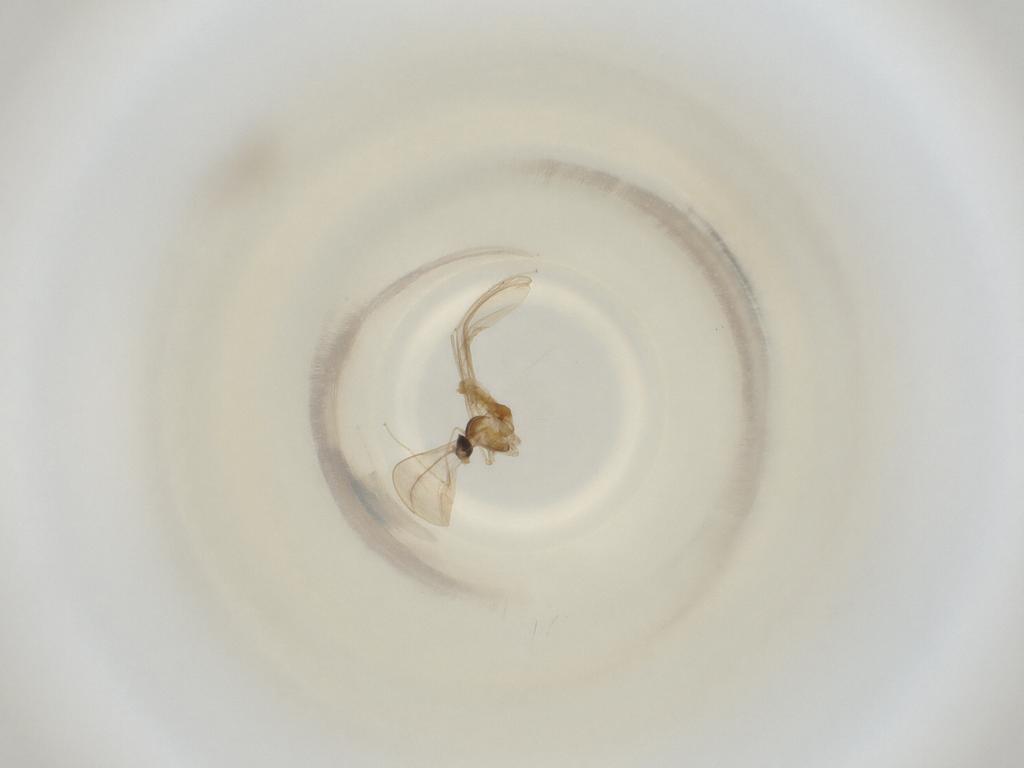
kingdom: Animalia
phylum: Arthropoda
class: Insecta
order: Diptera
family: Cecidomyiidae
